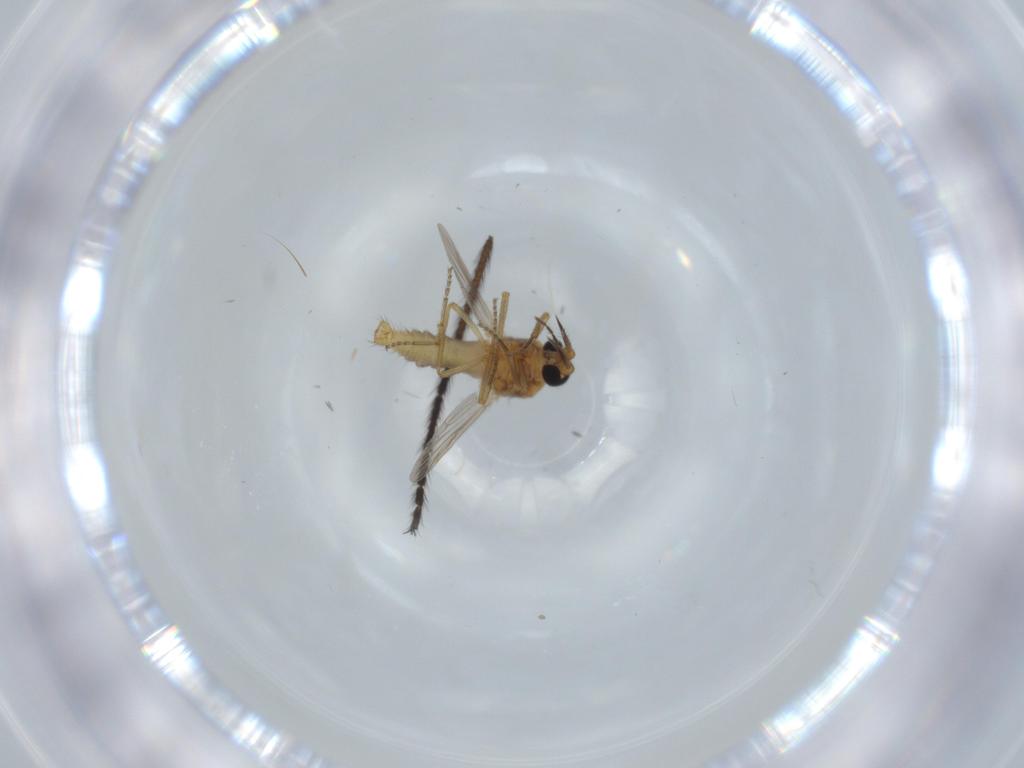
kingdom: Animalia
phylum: Arthropoda
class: Insecta
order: Diptera
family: Ceratopogonidae
